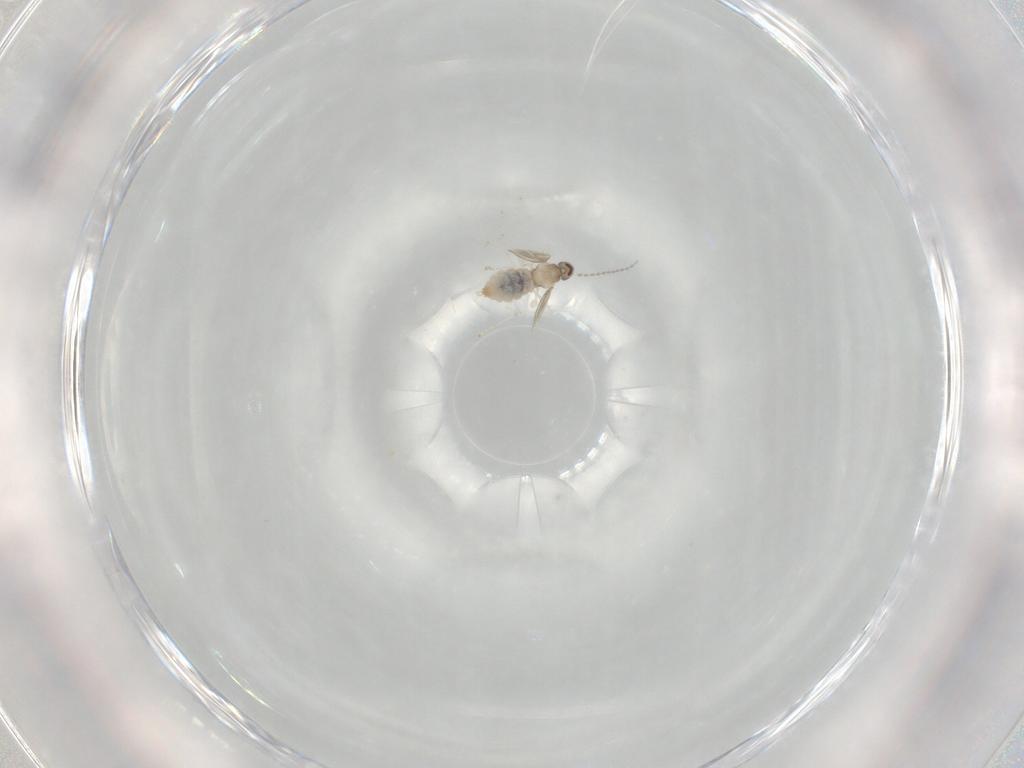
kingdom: Animalia
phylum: Arthropoda
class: Insecta
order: Diptera
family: Cecidomyiidae
